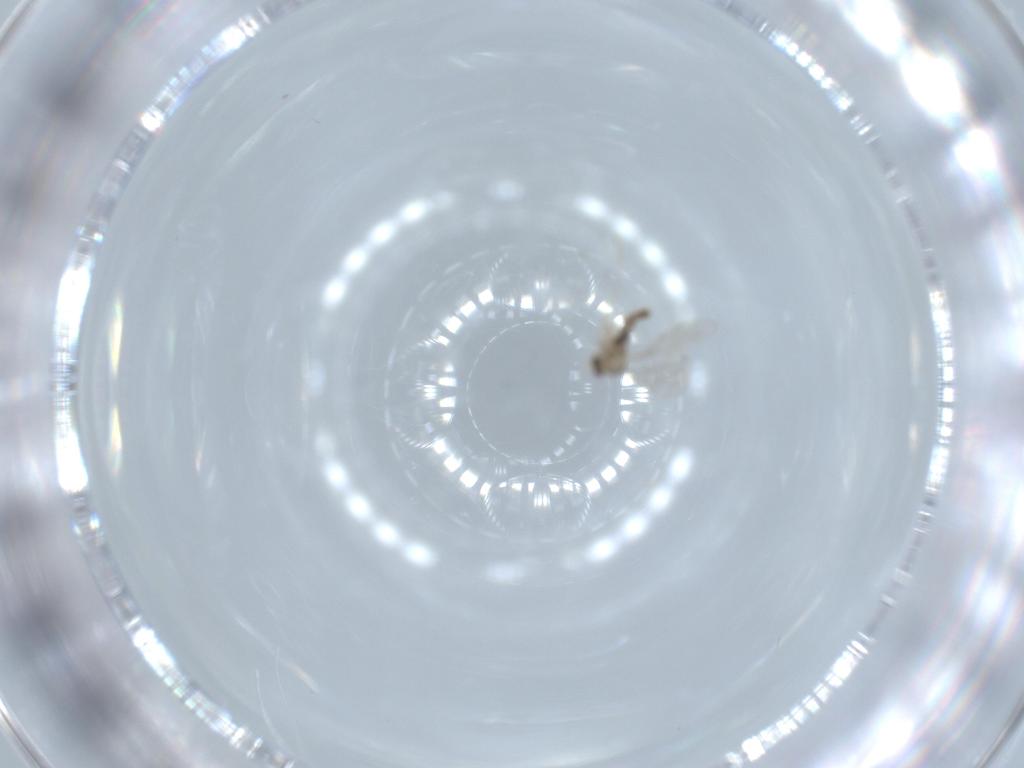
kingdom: Animalia
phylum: Arthropoda
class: Insecta
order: Diptera
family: Cecidomyiidae
